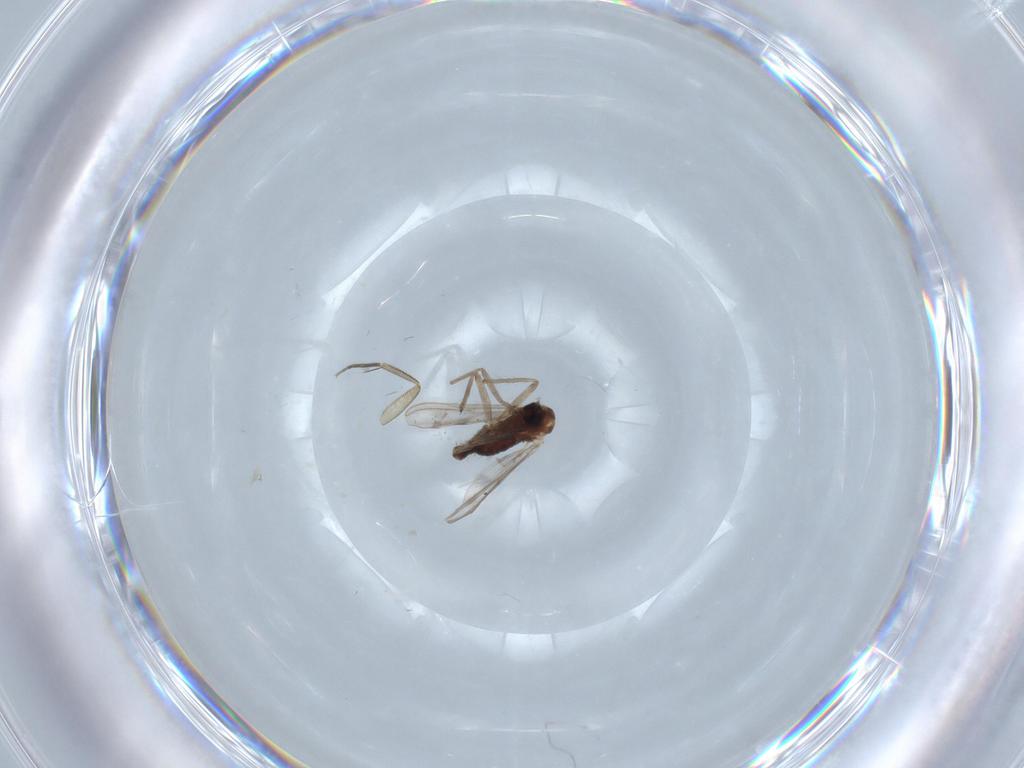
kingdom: Animalia
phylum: Arthropoda
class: Insecta
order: Diptera
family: Chironomidae
